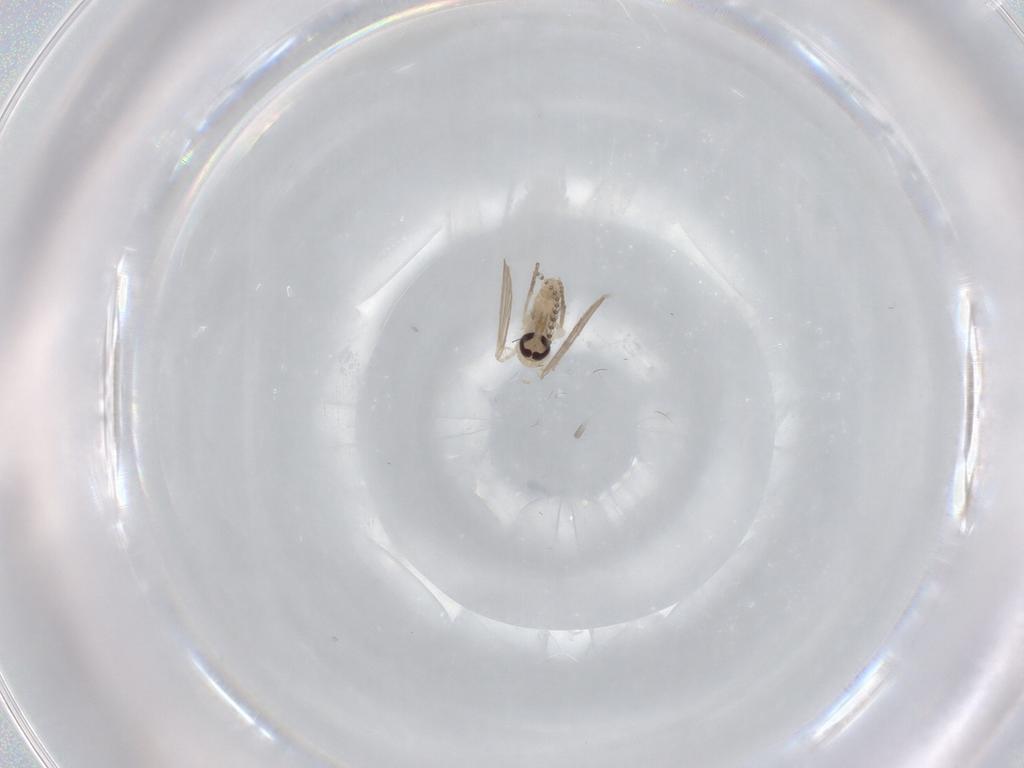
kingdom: Animalia
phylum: Arthropoda
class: Insecta
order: Diptera
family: Psychodidae
